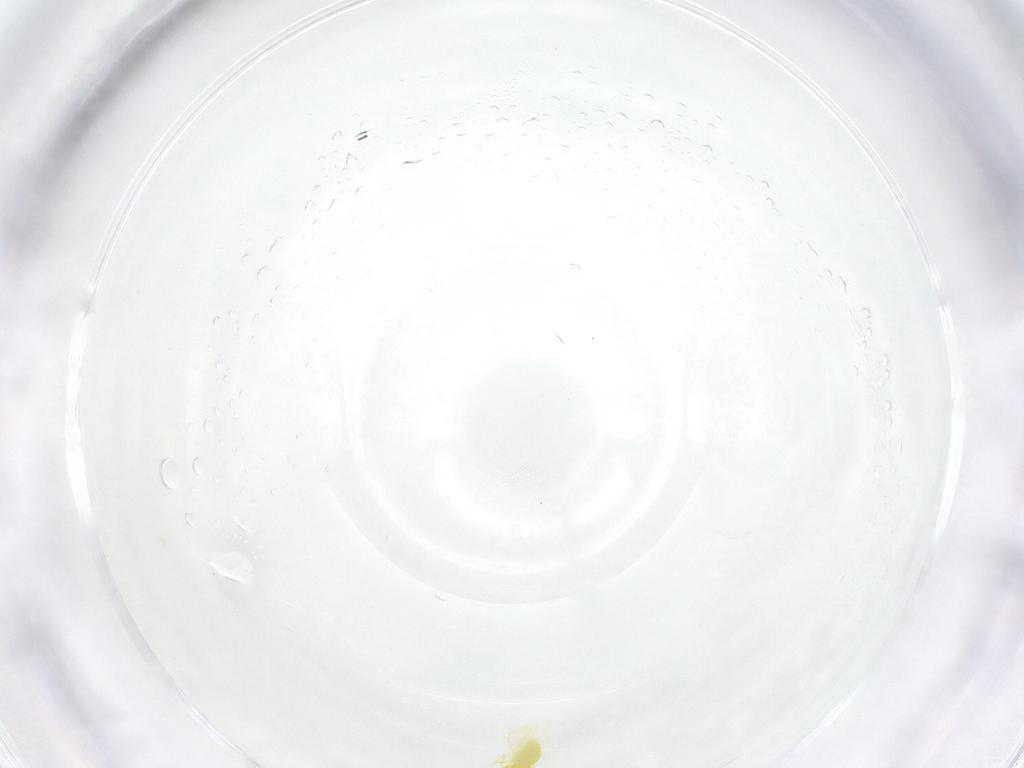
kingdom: Animalia
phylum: Arthropoda
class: Insecta
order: Hemiptera
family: Aleyrodidae
